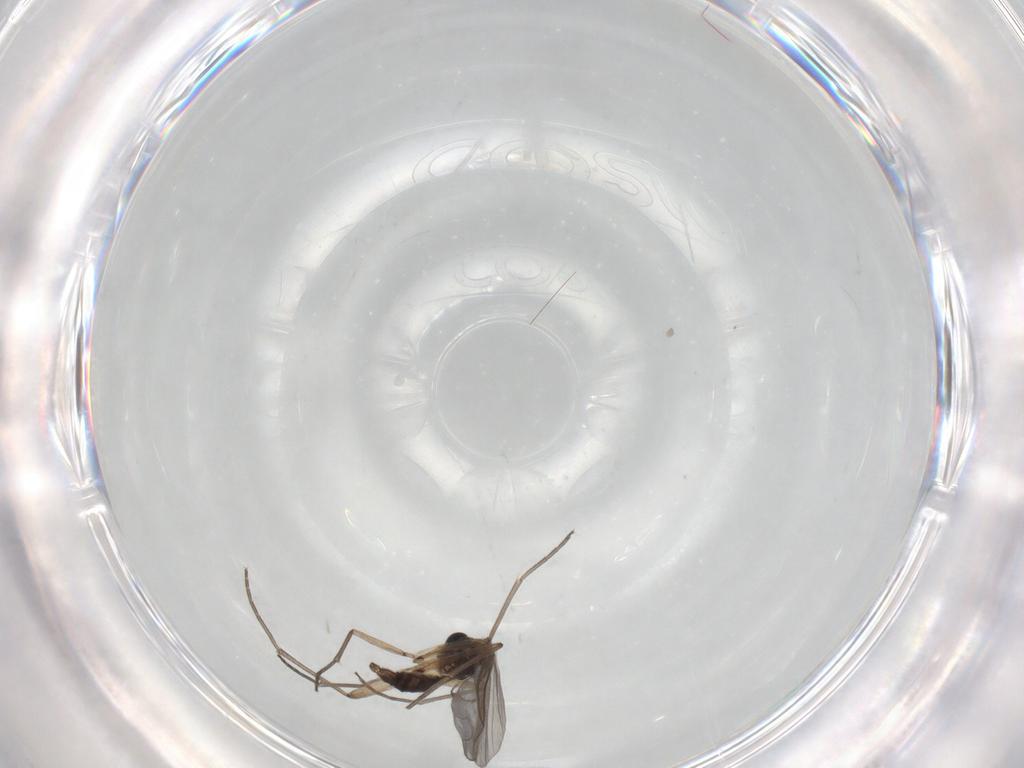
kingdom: Animalia
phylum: Arthropoda
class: Insecta
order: Diptera
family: Sciaridae
